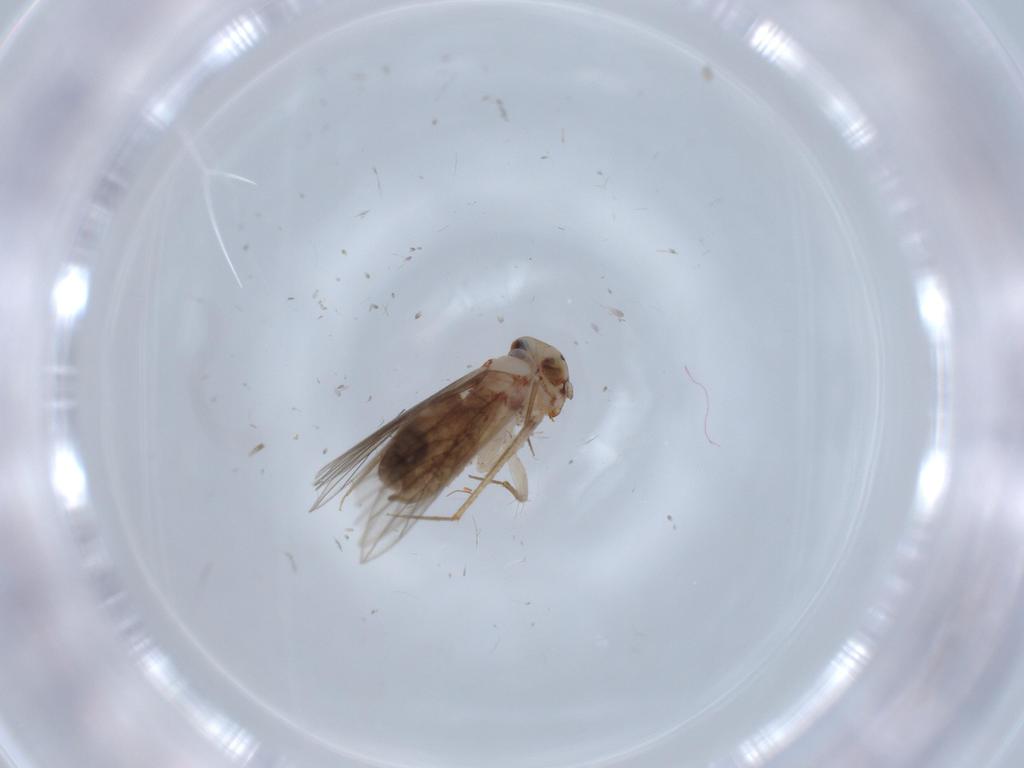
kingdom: Animalia
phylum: Arthropoda
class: Insecta
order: Psocodea
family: Lepidopsocidae
